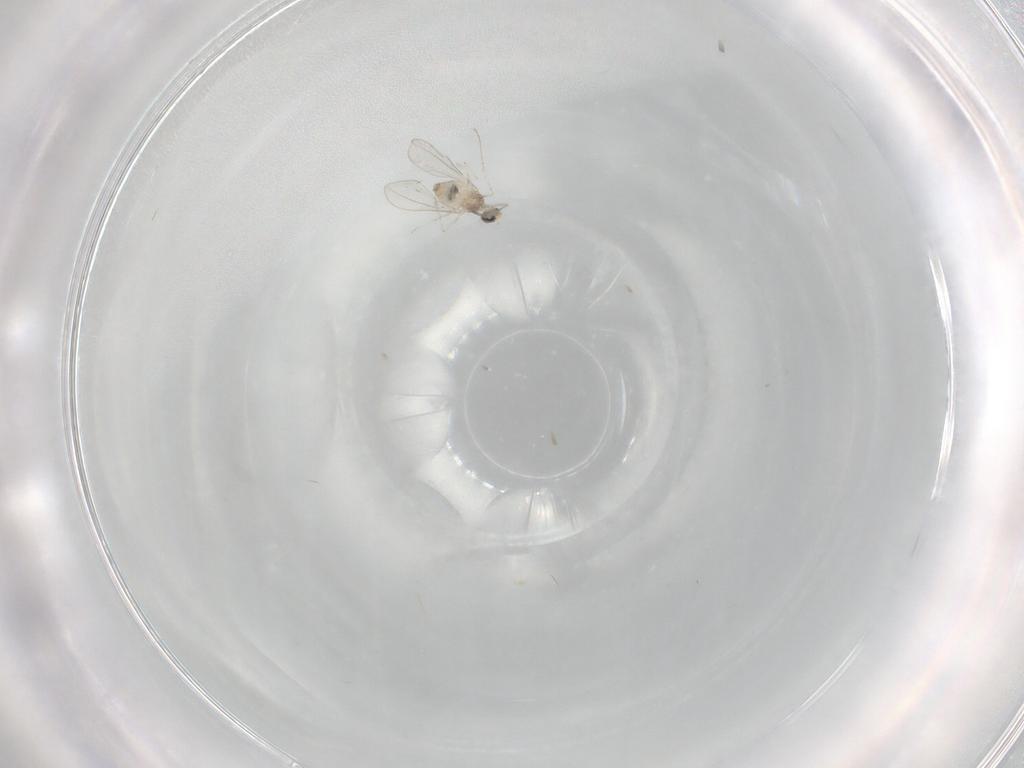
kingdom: Animalia
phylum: Arthropoda
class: Insecta
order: Diptera
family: Cecidomyiidae
